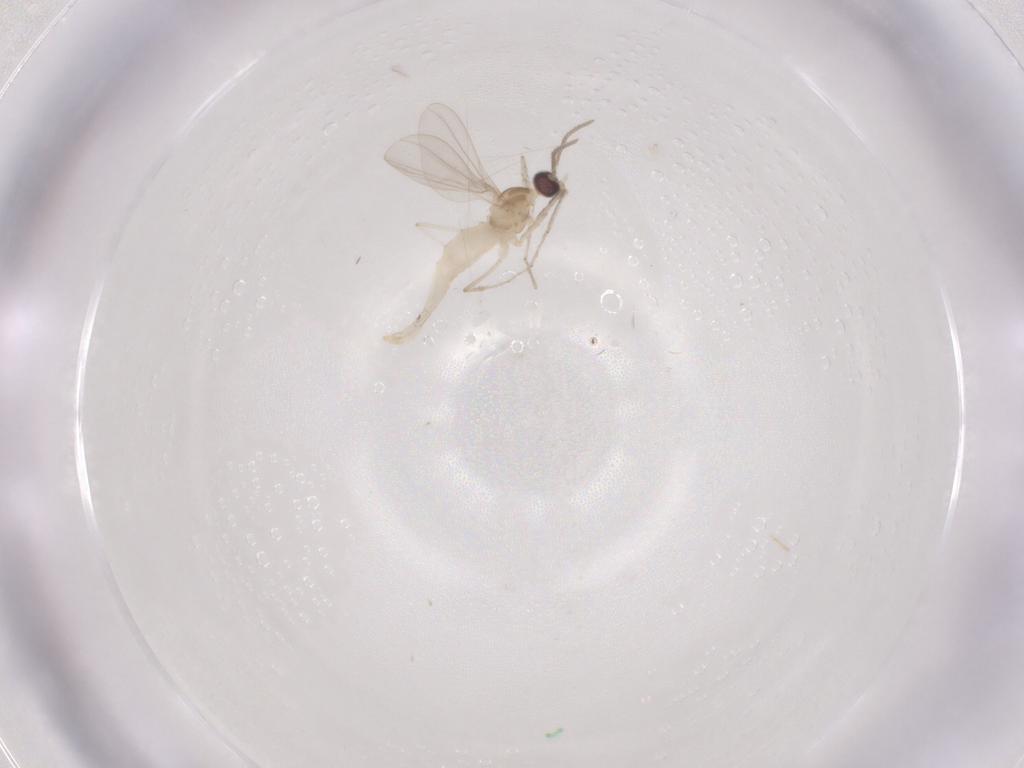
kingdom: Animalia
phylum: Arthropoda
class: Insecta
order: Diptera
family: Cecidomyiidae
